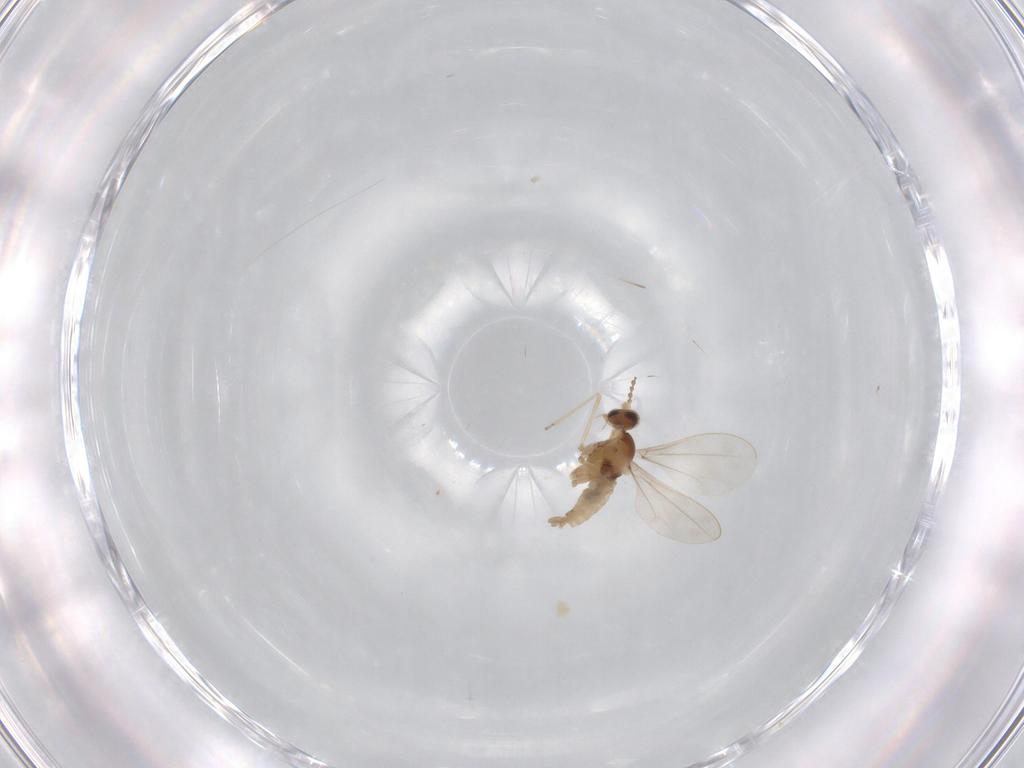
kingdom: Animalia
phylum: Arthropoda
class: Insecta
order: Diptera
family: Cecidomyiidae
